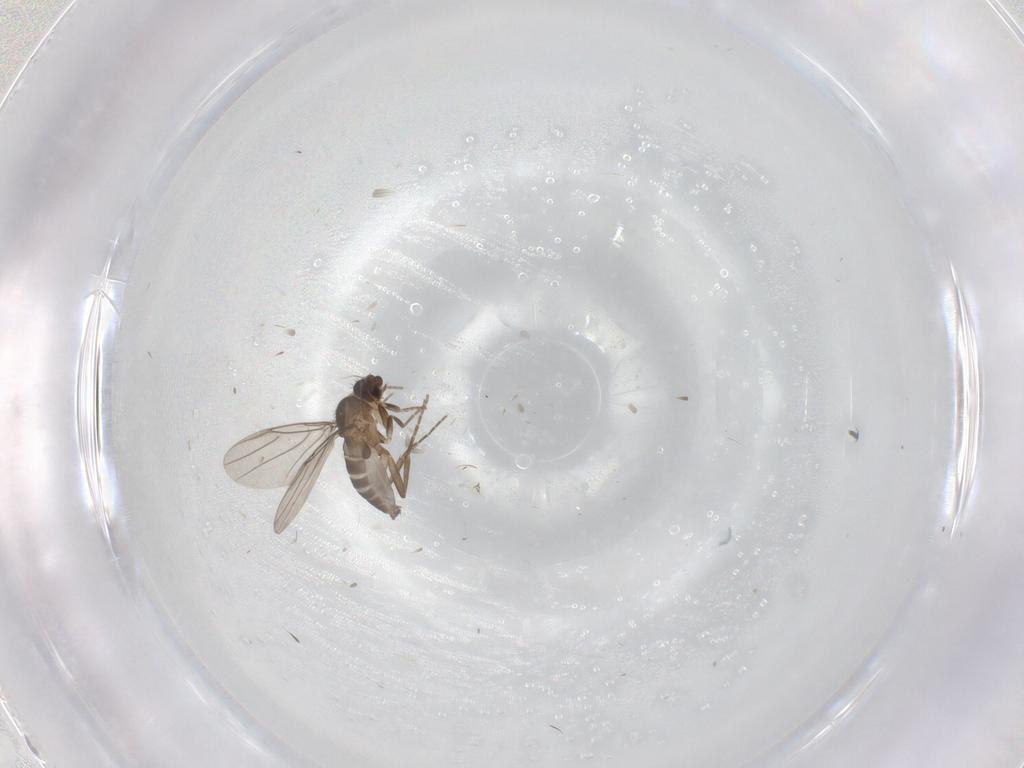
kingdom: Animalia
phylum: Arthropoda
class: Insecta
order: Diptera
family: Phoridae
